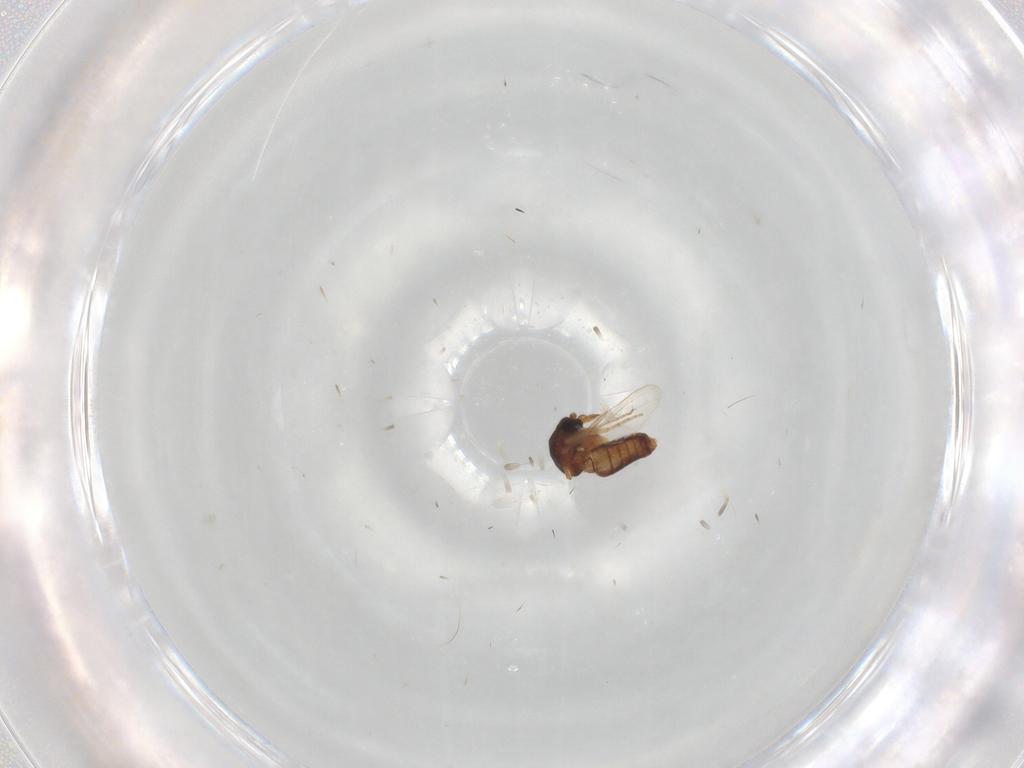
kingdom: Animalia
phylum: Arthropoda
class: Insecta
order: Diptera
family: Ceratopogonidae
